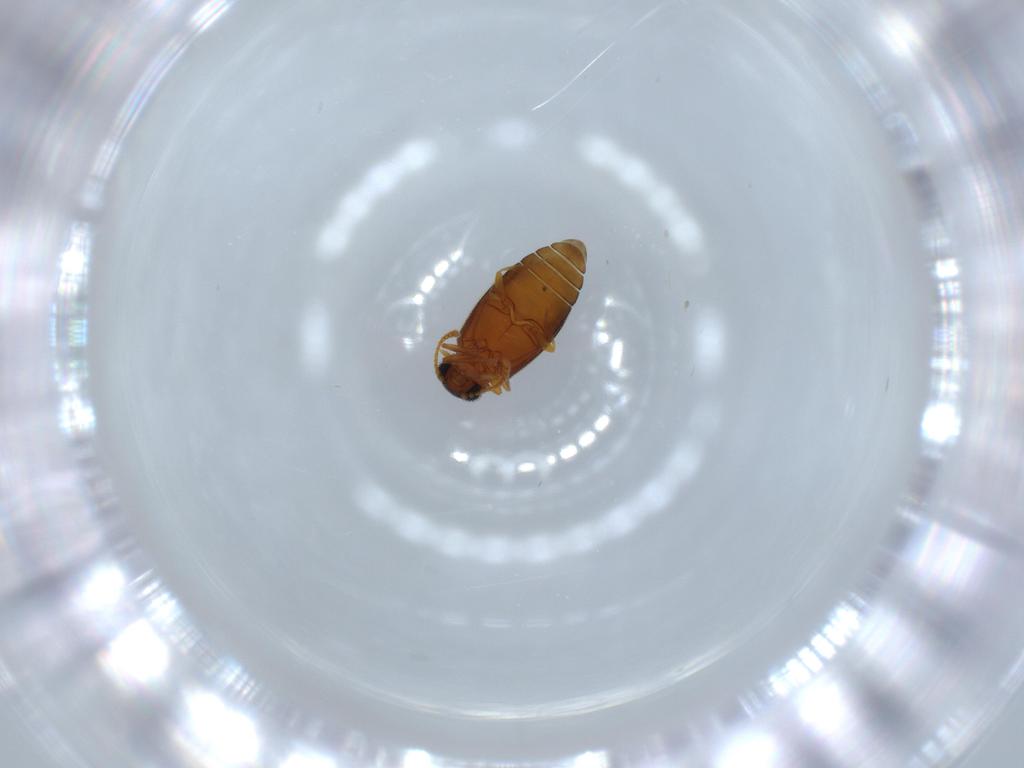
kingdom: Animalia
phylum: Arthropoda
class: Insecta
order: Coleoptera
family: Aderidae
